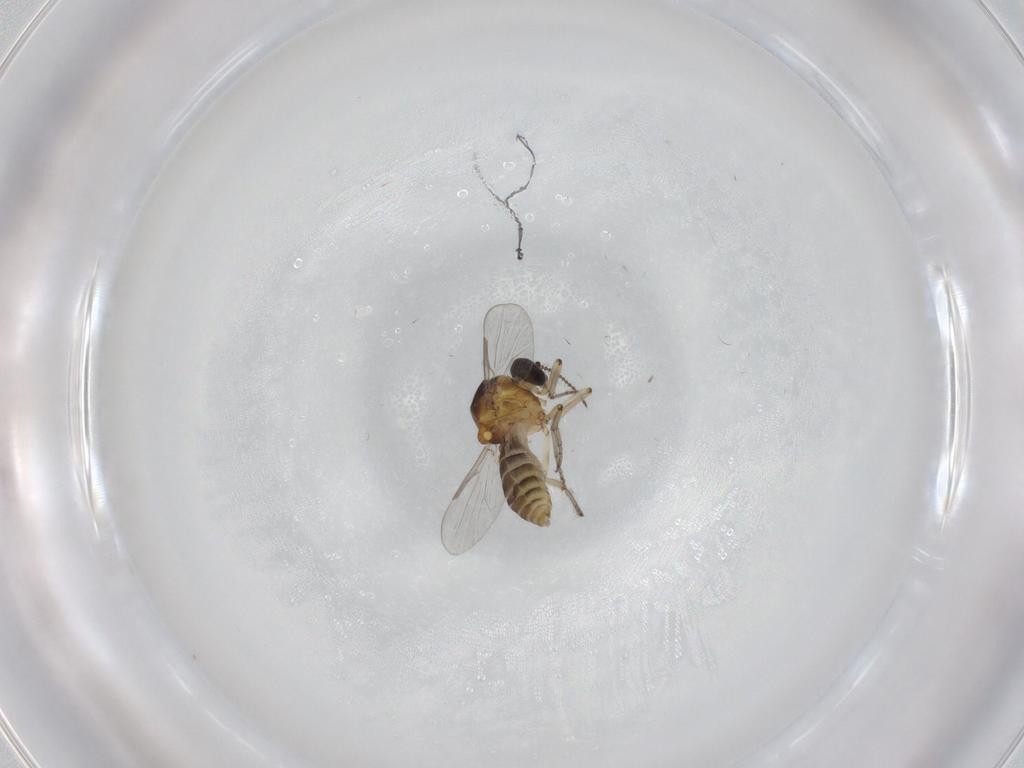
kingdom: Animalia
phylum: Arthropoda
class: Insecta
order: Diptera
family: Ceratopogonidae
